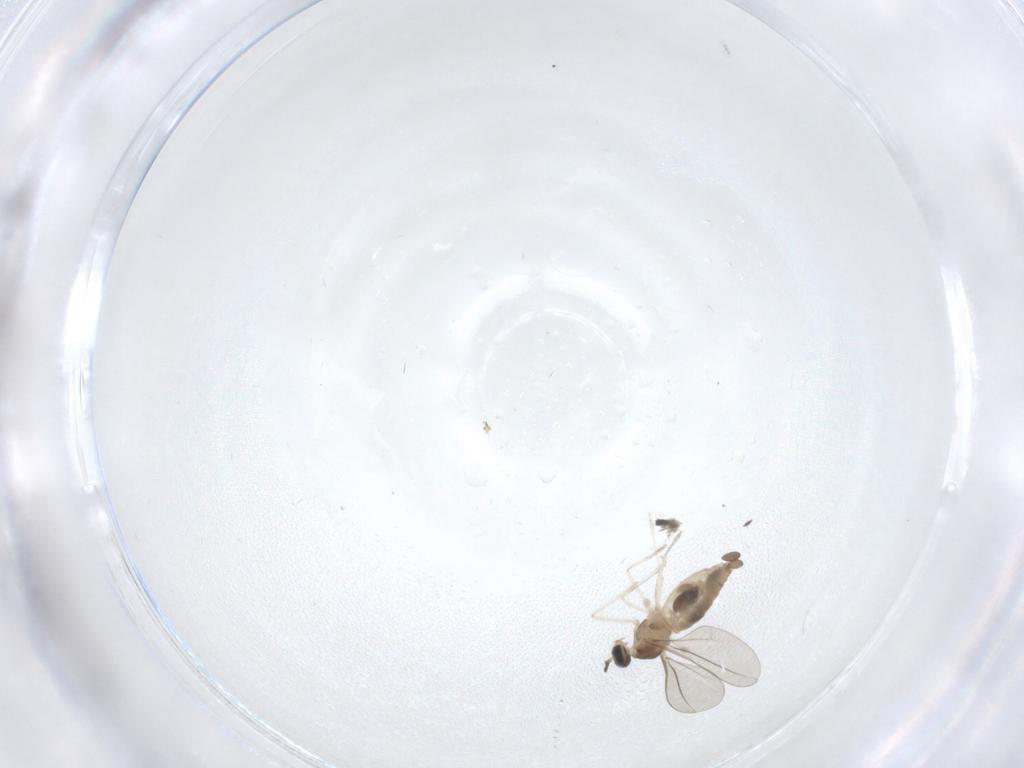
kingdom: Animalia
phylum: Arthropoda
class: Insecta
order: Diptera
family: Cecidomyiidae
